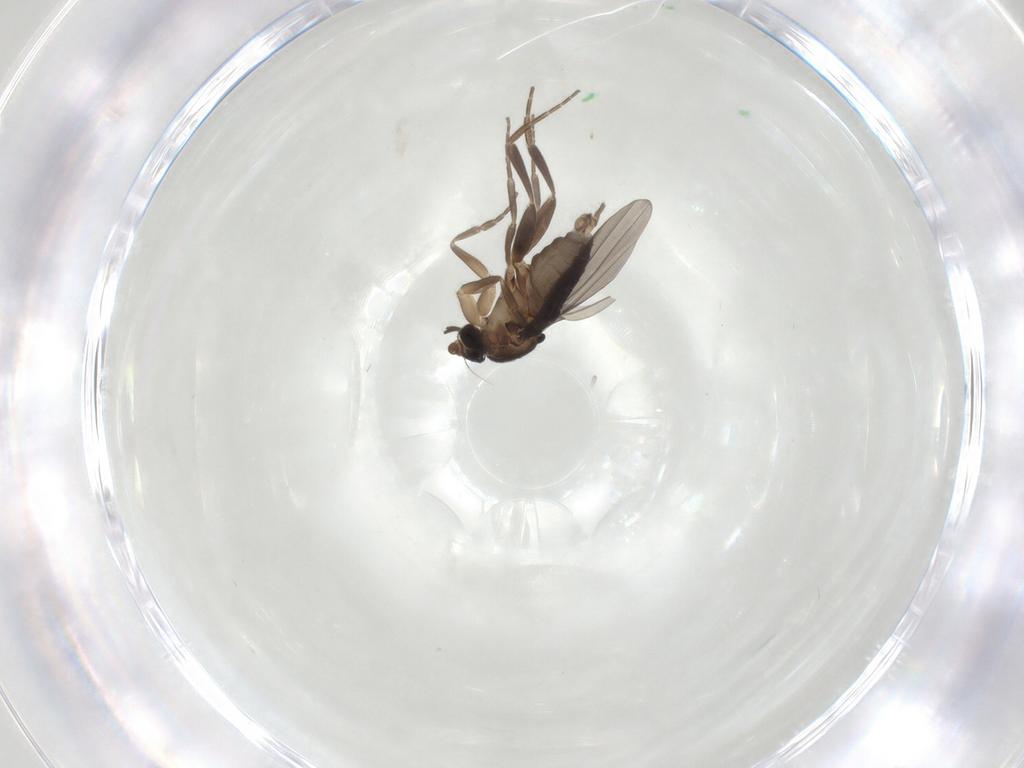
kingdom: Animalia
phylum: Arthropoda
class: Insecta
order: Diptera
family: Phoridae
